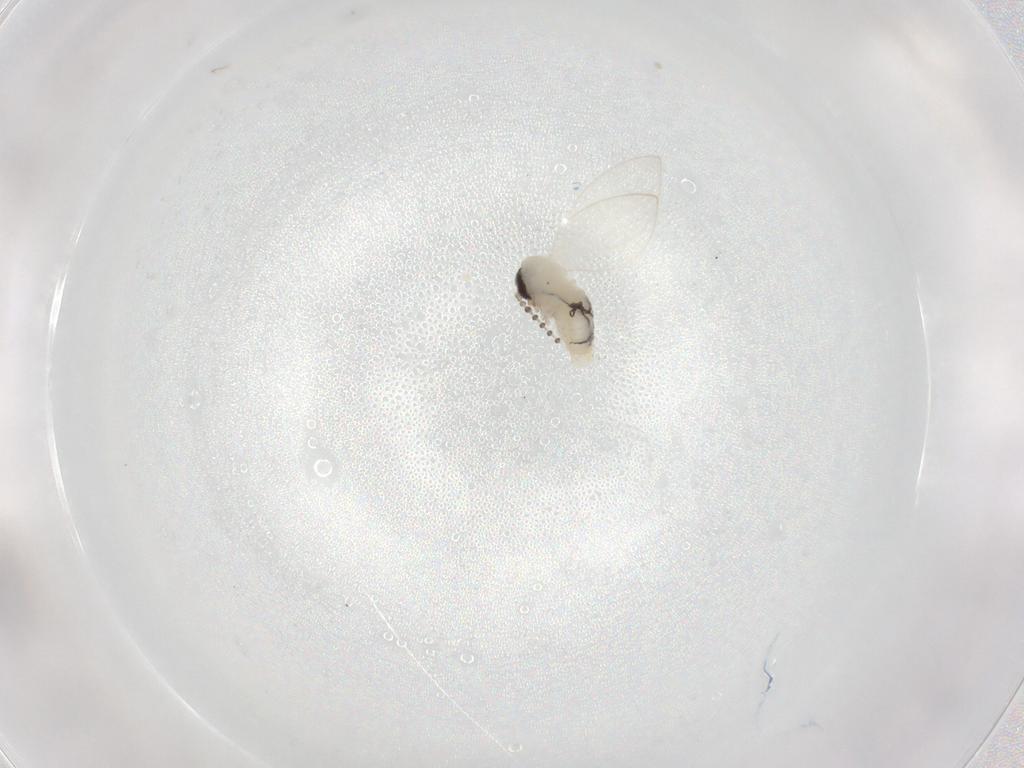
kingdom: Animalia
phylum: Arthropoda
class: Insecta
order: Diptera
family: Psychodidae
